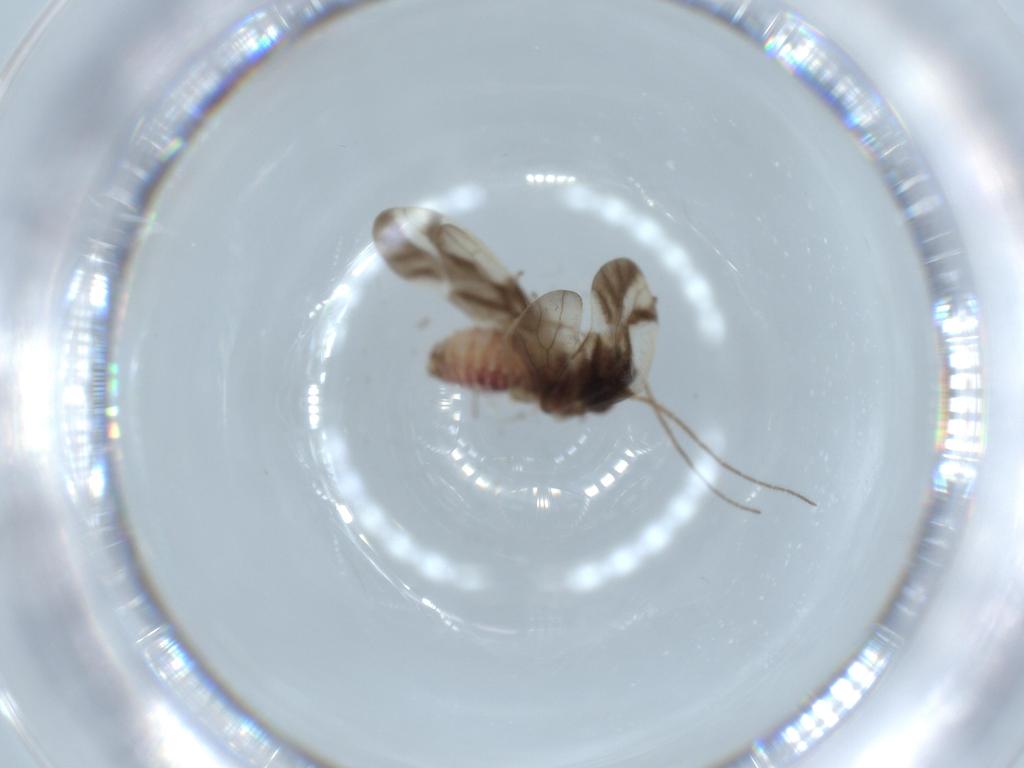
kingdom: Animalia
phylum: Arthropoda
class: Insecta
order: Psocodea
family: Caeciliusidae
